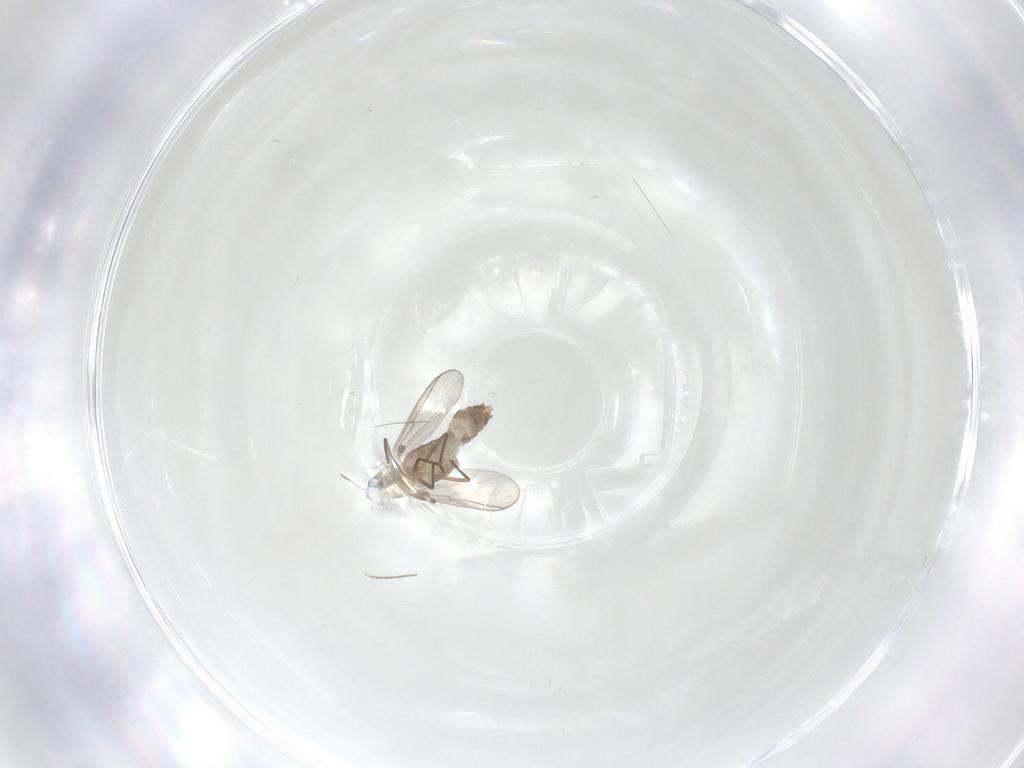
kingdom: Animalia
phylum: Arthropoda
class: Insecta
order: Diptera
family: Chironomidae
